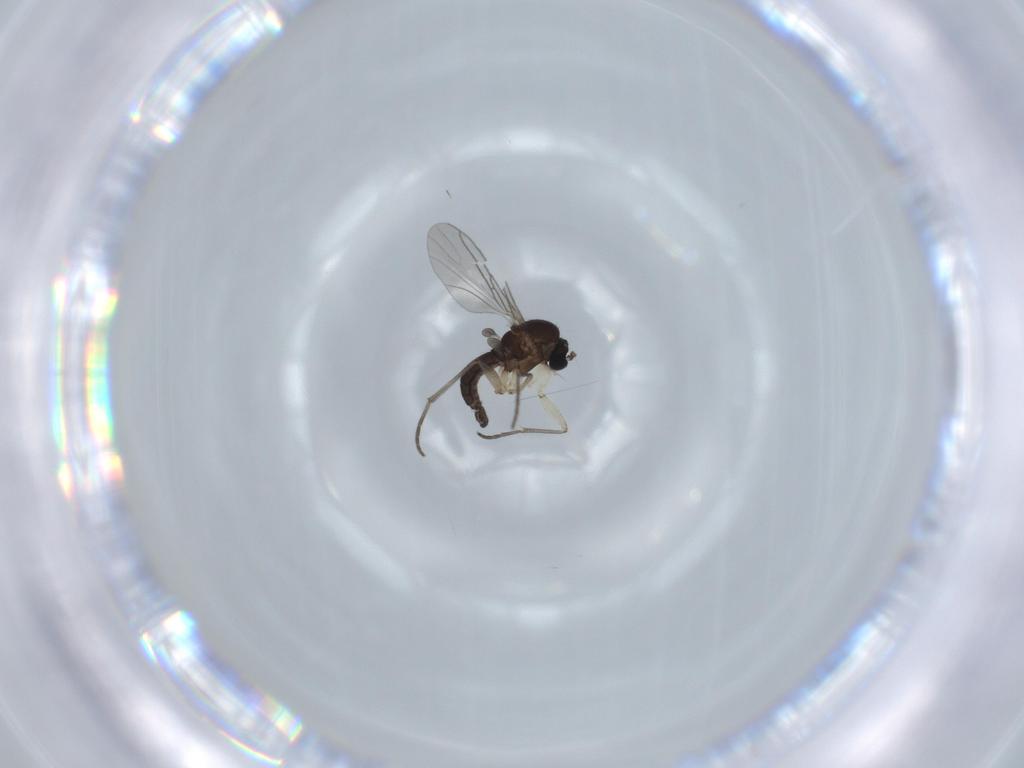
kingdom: Animalia
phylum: Arthropoda
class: Insecta
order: Diptera
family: Sciaridae
